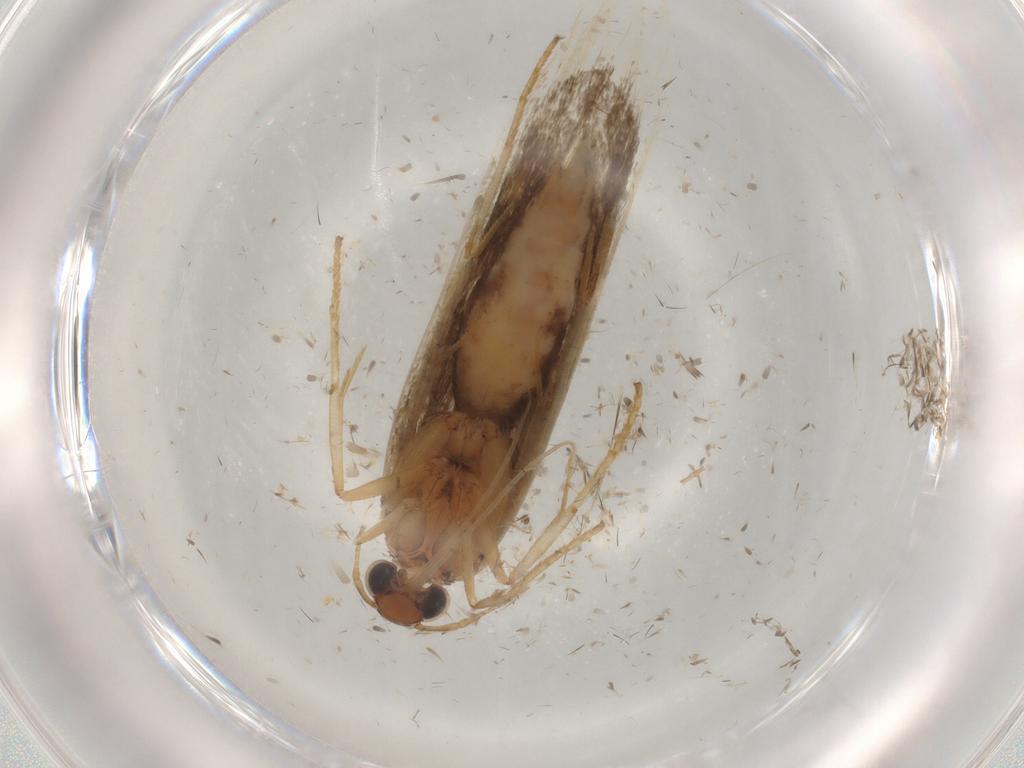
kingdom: Animalia
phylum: Arthropoda
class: Insecta
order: Lepidoptera
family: Gelechiidae
